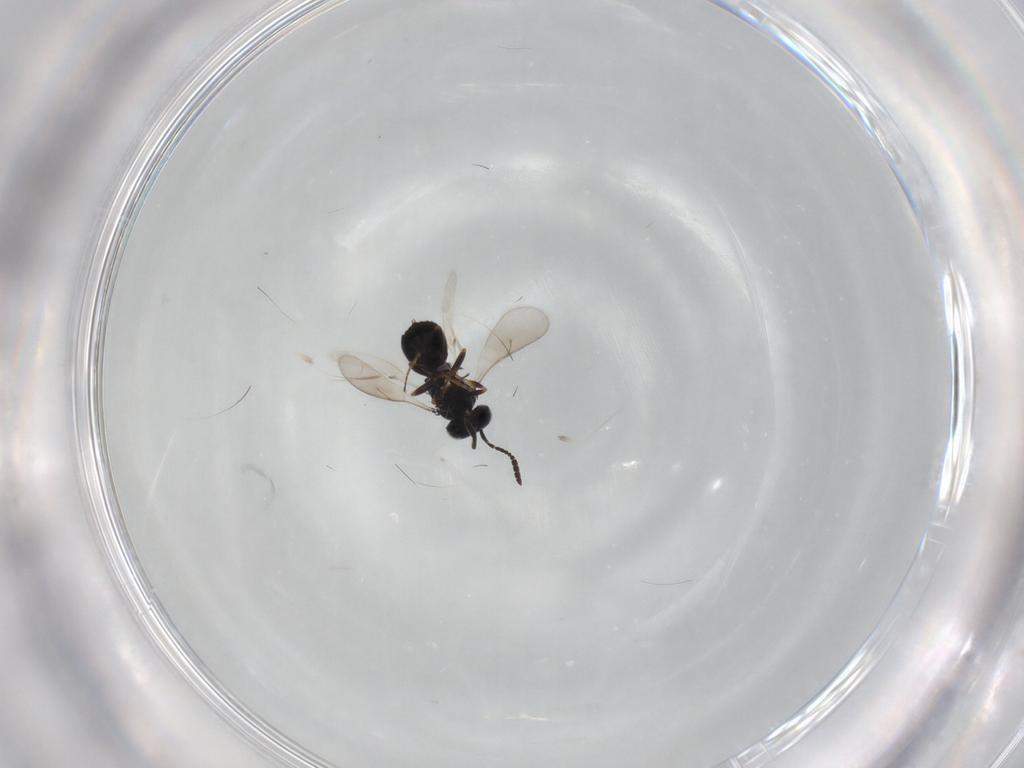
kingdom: Animalia
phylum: Arthropoda
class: Insecta
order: Hymenoptera
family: Scelionidae
